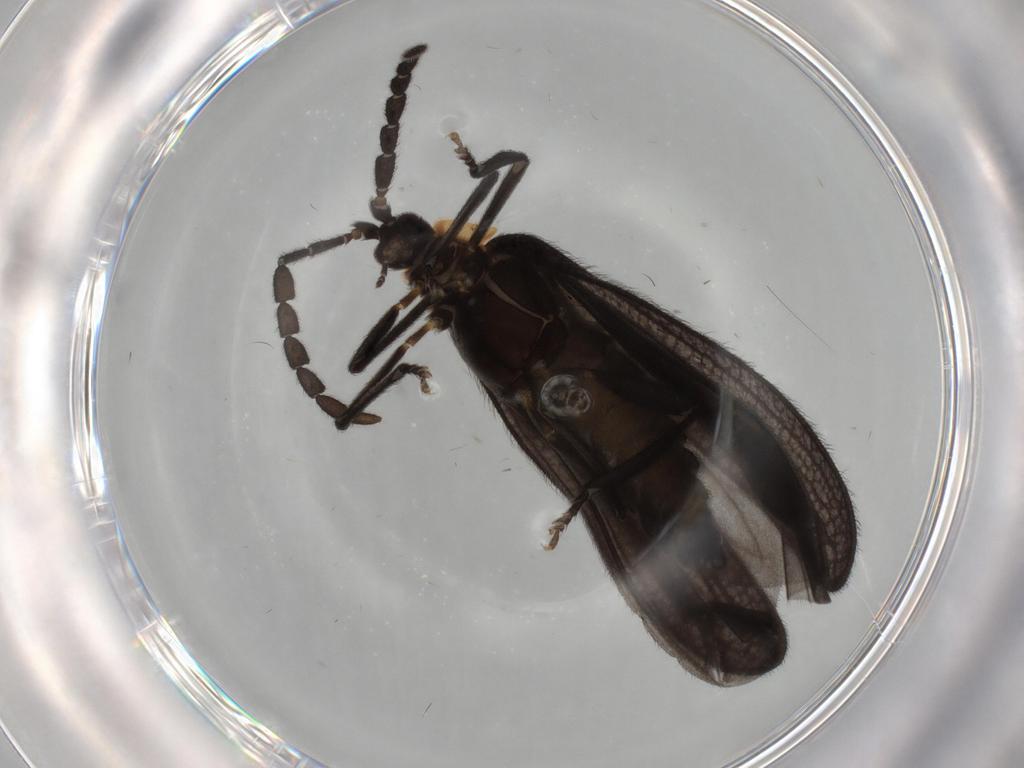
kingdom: Animalia
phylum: Arthropoda
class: Insecta
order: Coleoptera
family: Lycidae
